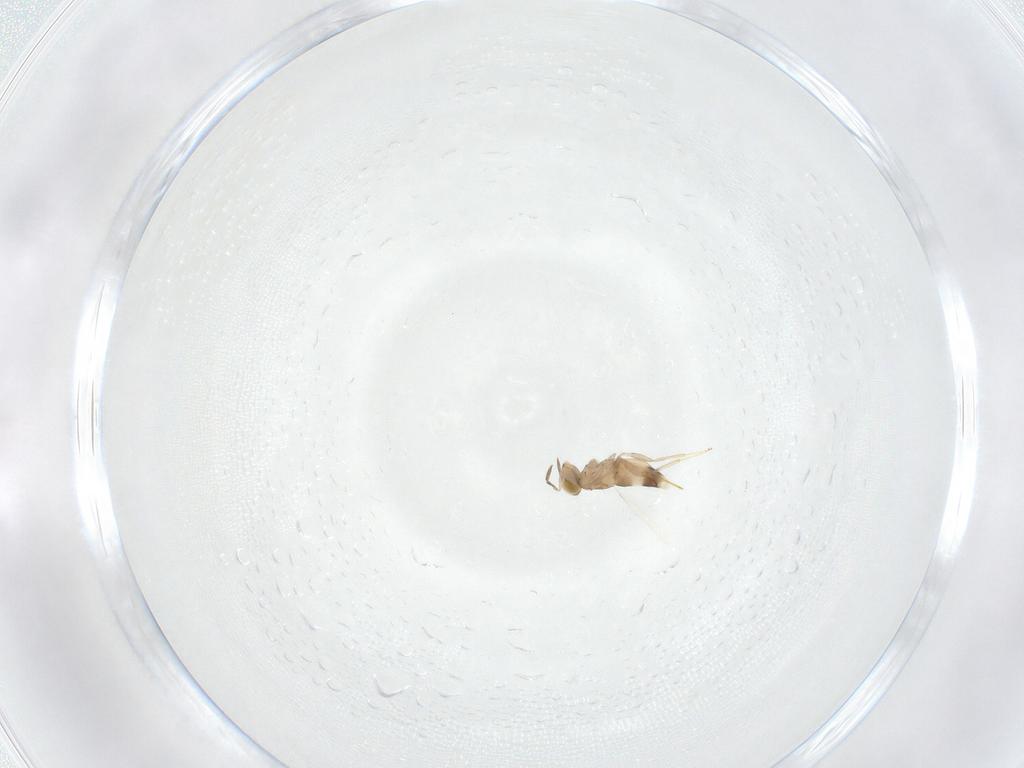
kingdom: Animalia
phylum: Arthropoda
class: Insecta
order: Hymenoptera
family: Aphelinidae
